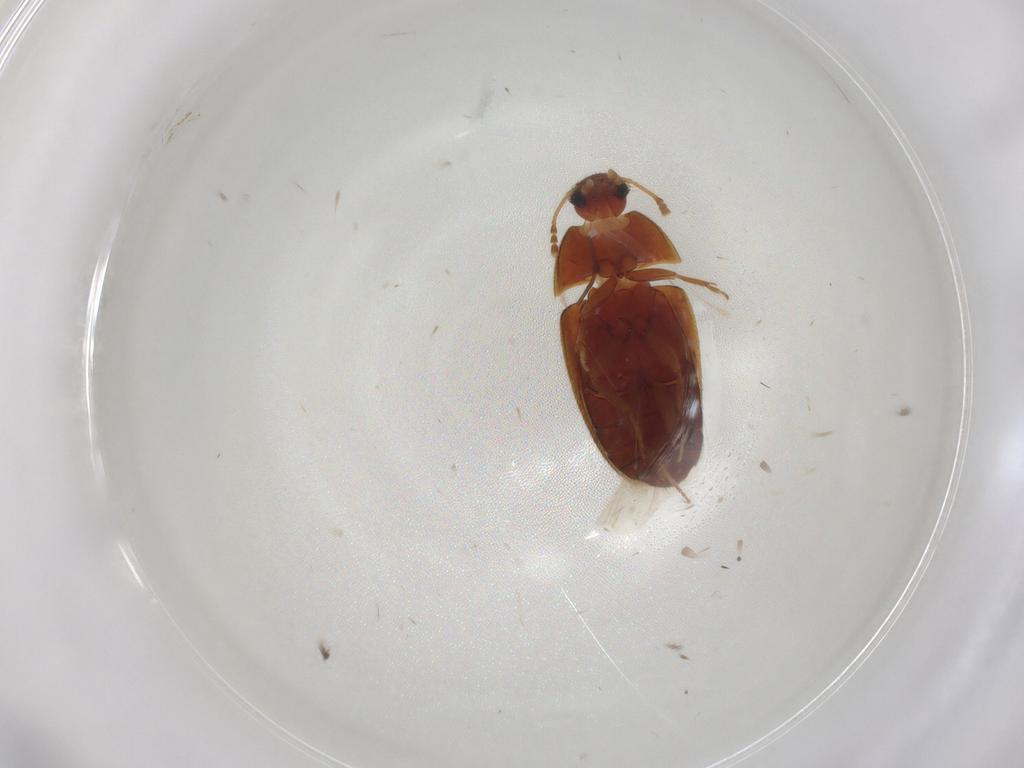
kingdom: Animalia
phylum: Arthropoda
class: Insecta
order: Coleoptera
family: Mycetophagidae
